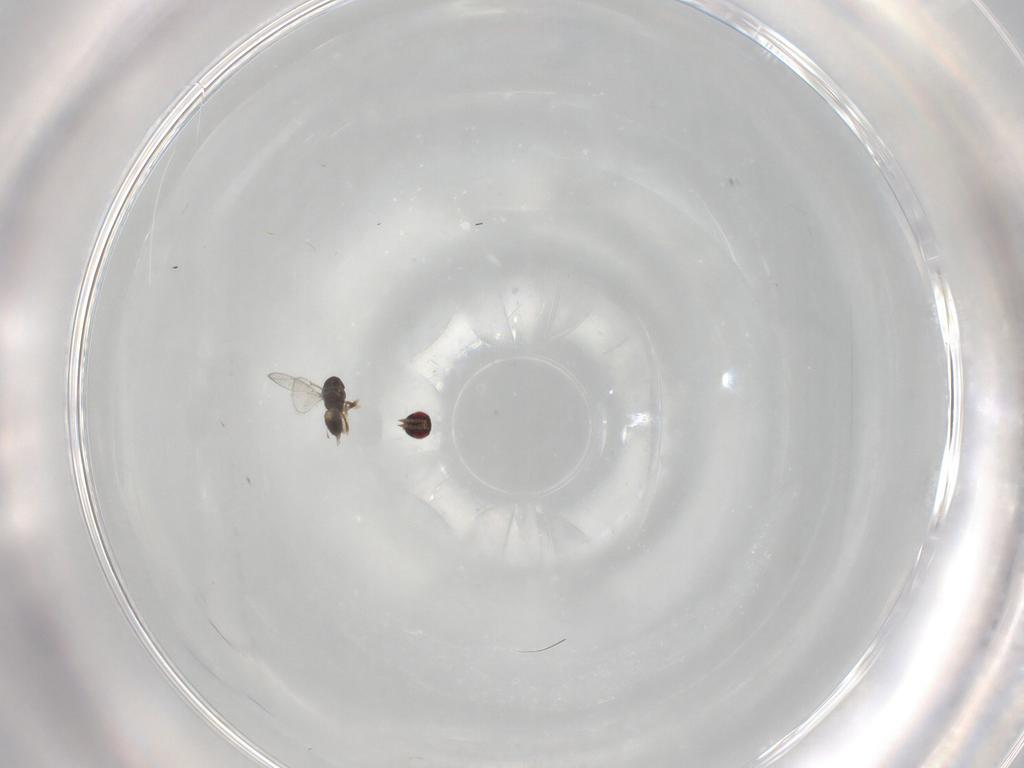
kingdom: Animalia
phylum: Arthropoda
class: Insecta
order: Hymenoptera
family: Eulophidae
